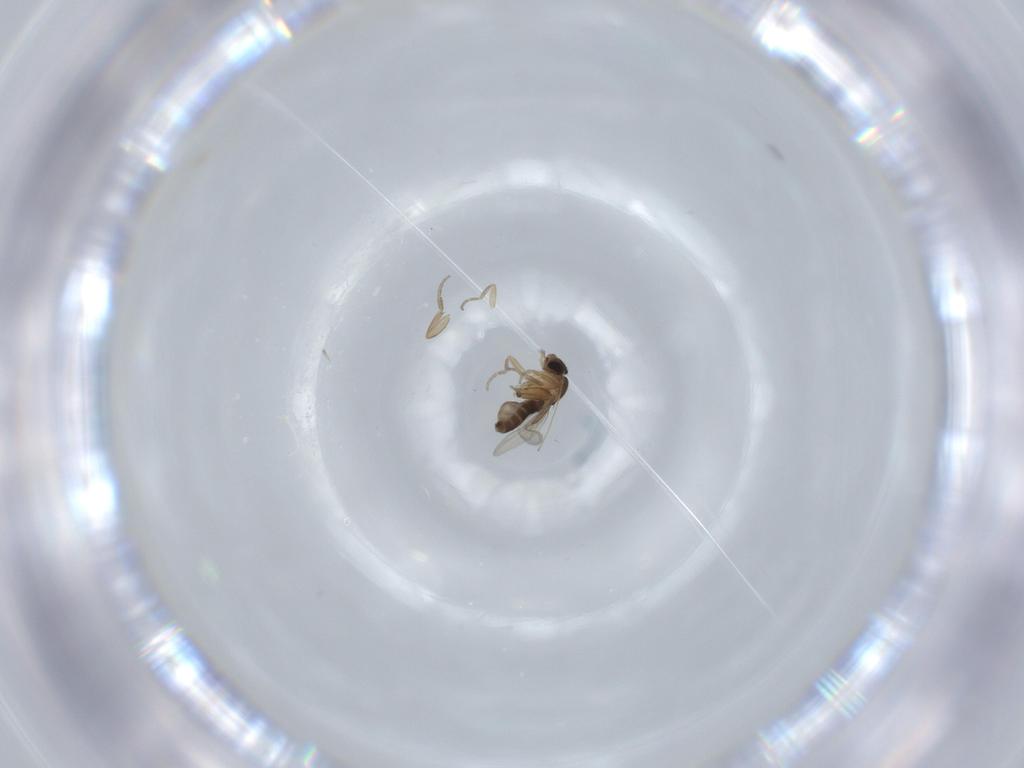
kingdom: Animalia
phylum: Arthropoda
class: Insecta
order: Diptera
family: Phoridae
